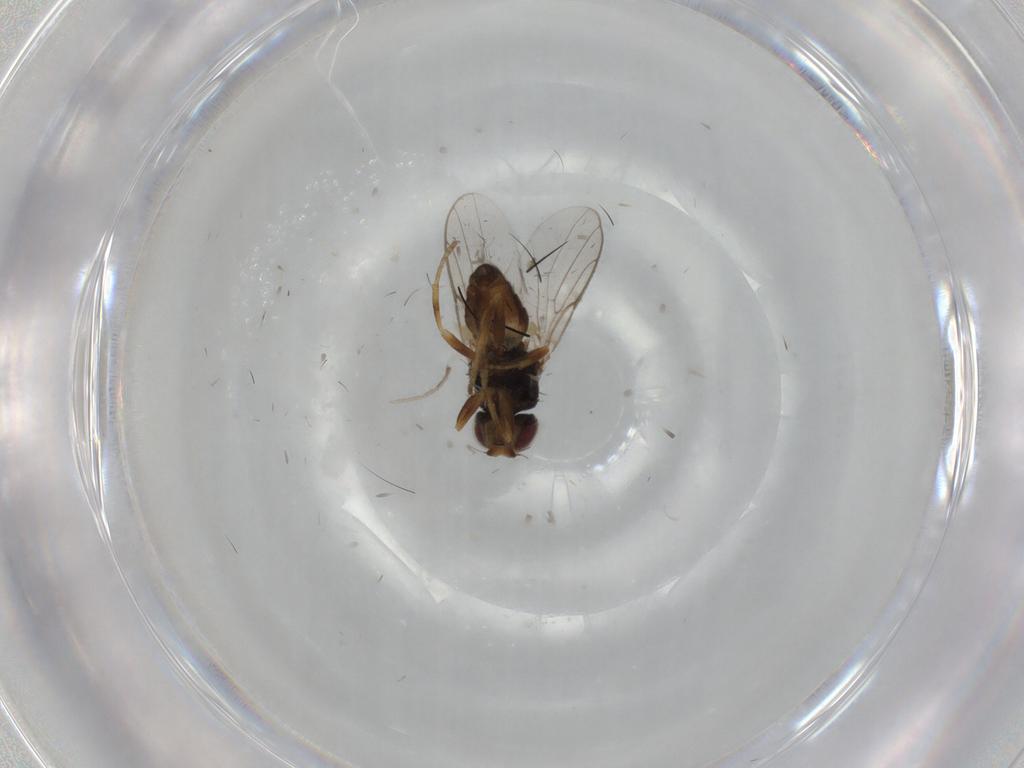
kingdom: Animalia
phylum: Arthropoda
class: Insecta
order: Diptera
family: Chloropidae
